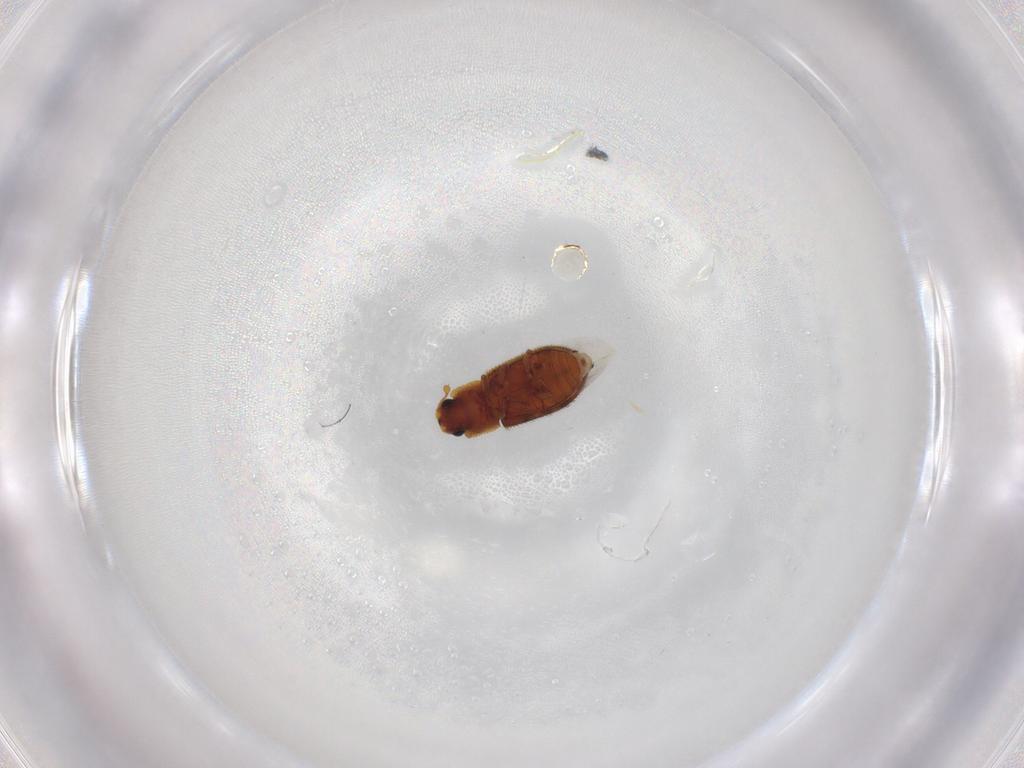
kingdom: Animalia
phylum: Arthropoda
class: Insecta
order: Coleoptera
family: Zopheridae
